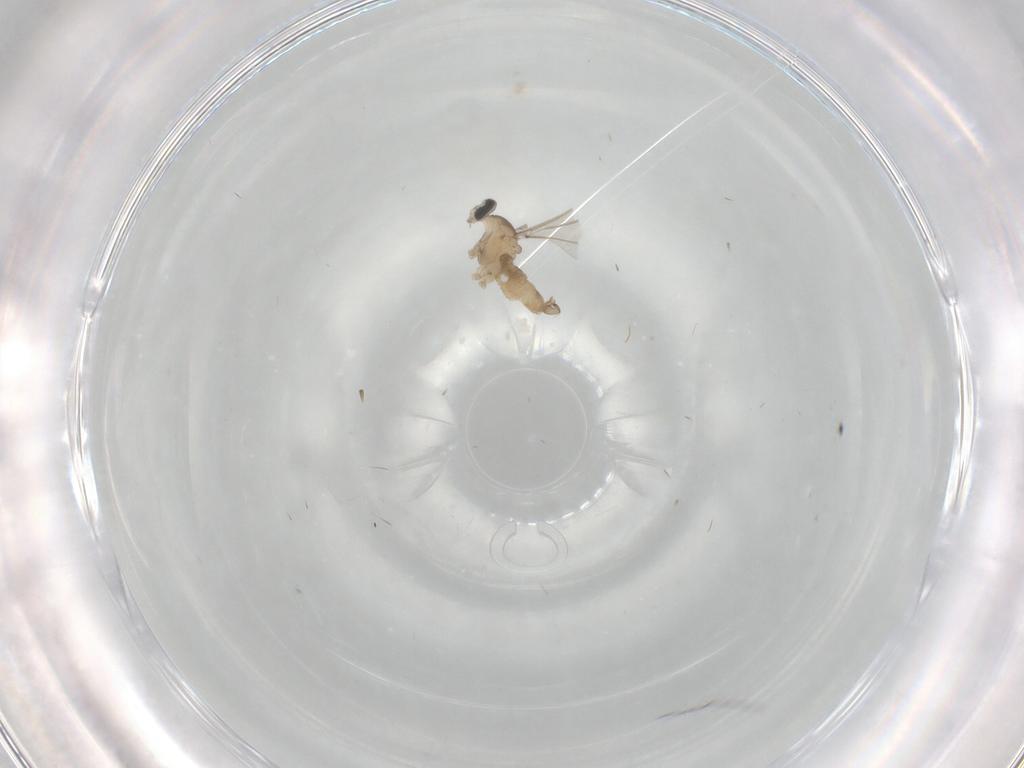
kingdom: Animalia
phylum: Arthropoda
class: Insecta
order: Diptera
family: Cecidomyiidae
